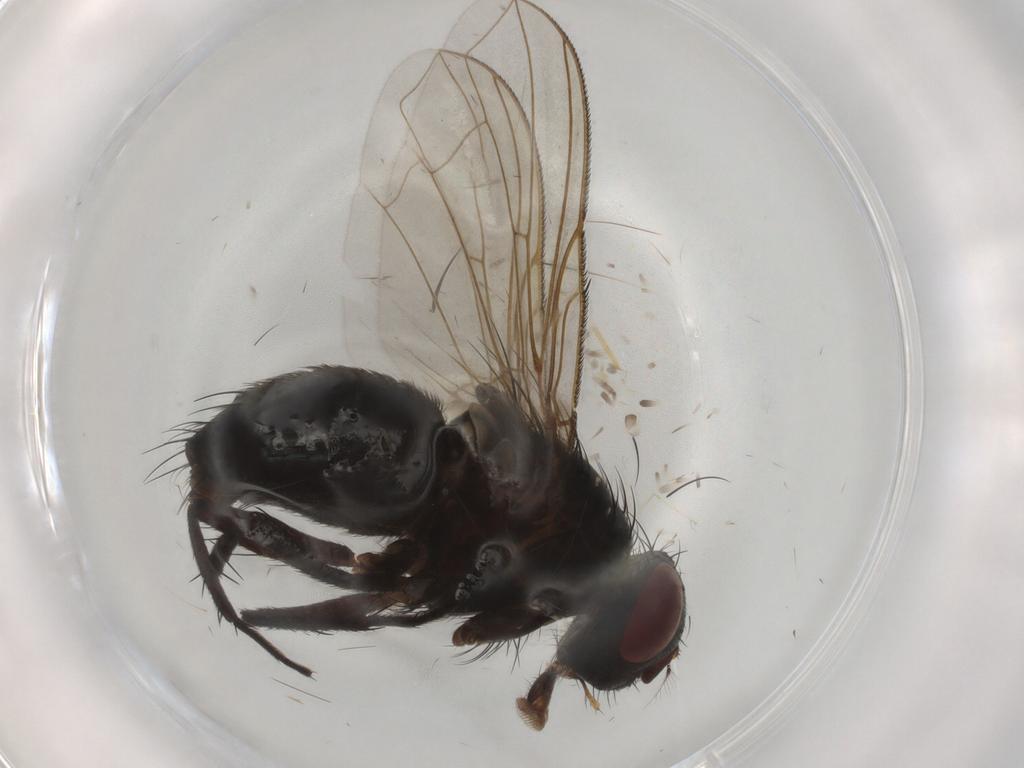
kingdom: Animalia
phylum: Arthropoda
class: Insecta
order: Diptera
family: Calliphoridae
